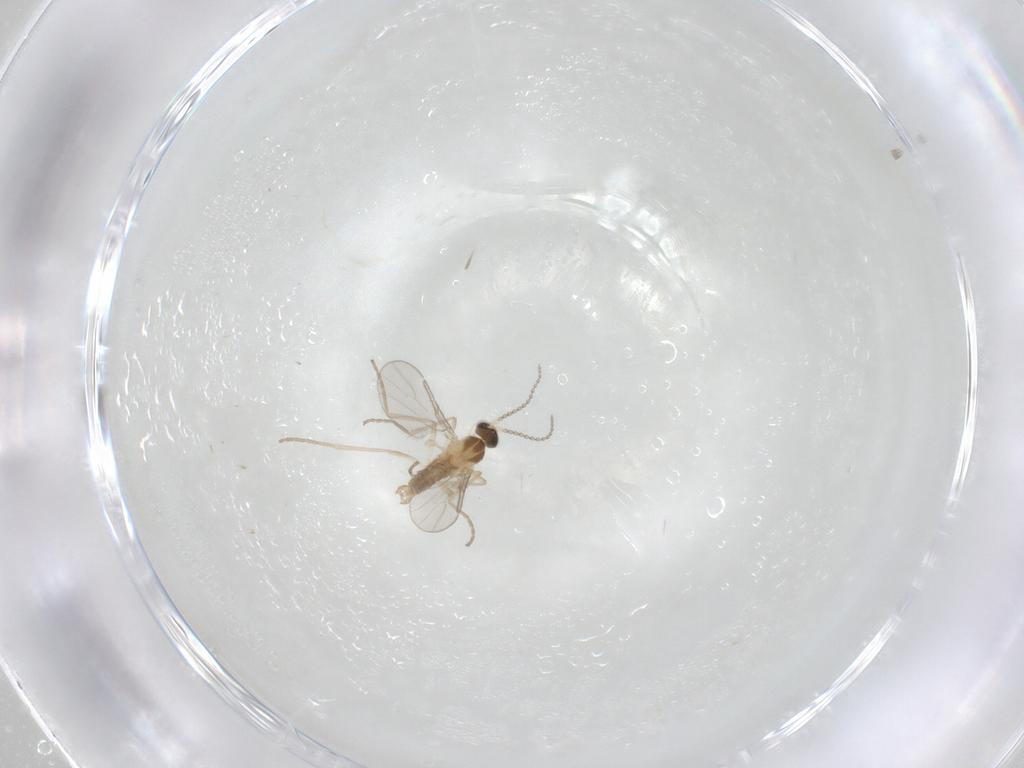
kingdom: Animalia
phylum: Arthropoda
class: Insecta
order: Diptera
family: Cecidomyiidae
